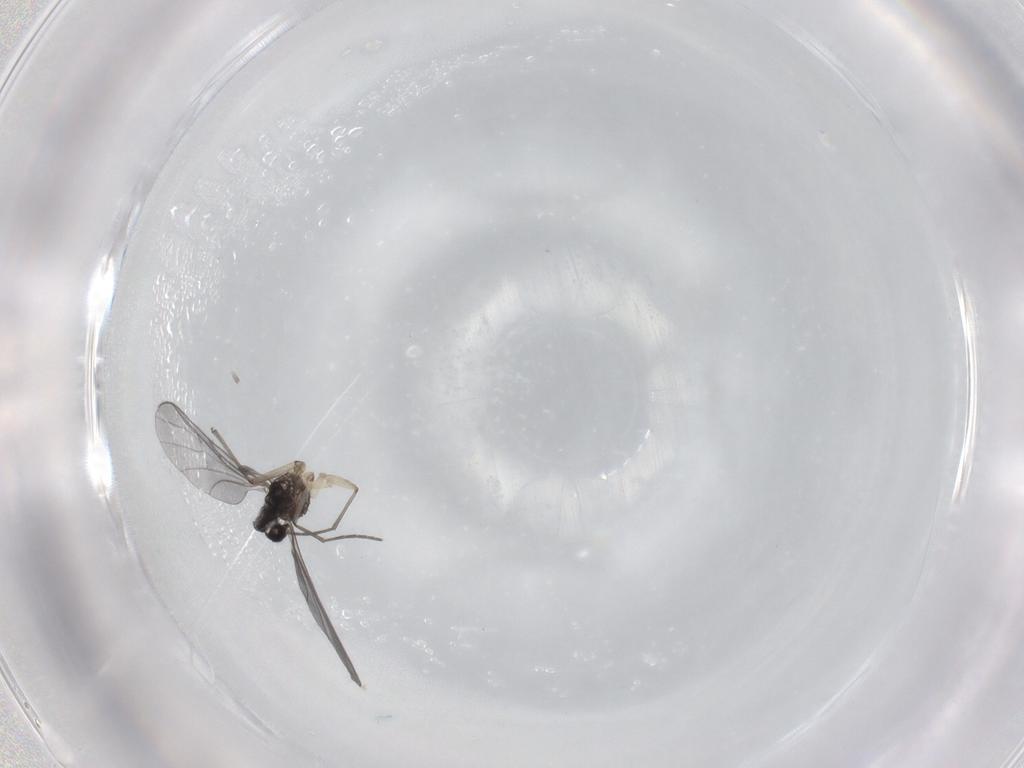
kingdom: Animalia
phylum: Arthropoda
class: Insecta
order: Diptera
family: Sciaridae
